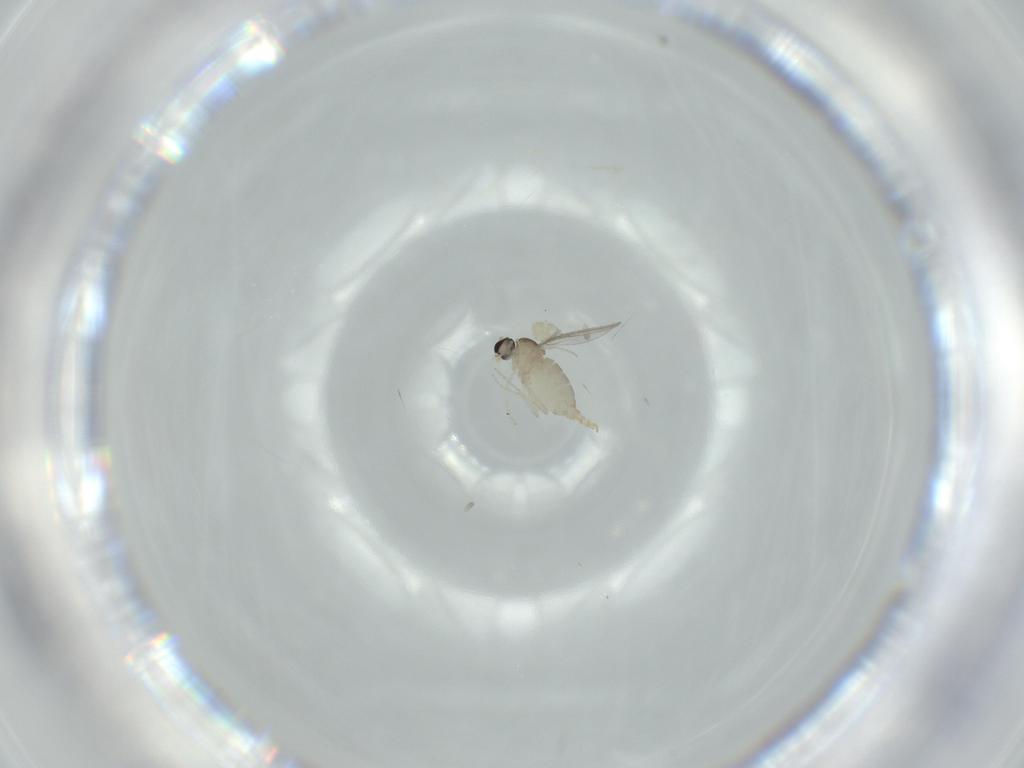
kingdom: Animalia
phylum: Arthropoda
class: Insecta
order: Diptera
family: Cecidomyiidae
